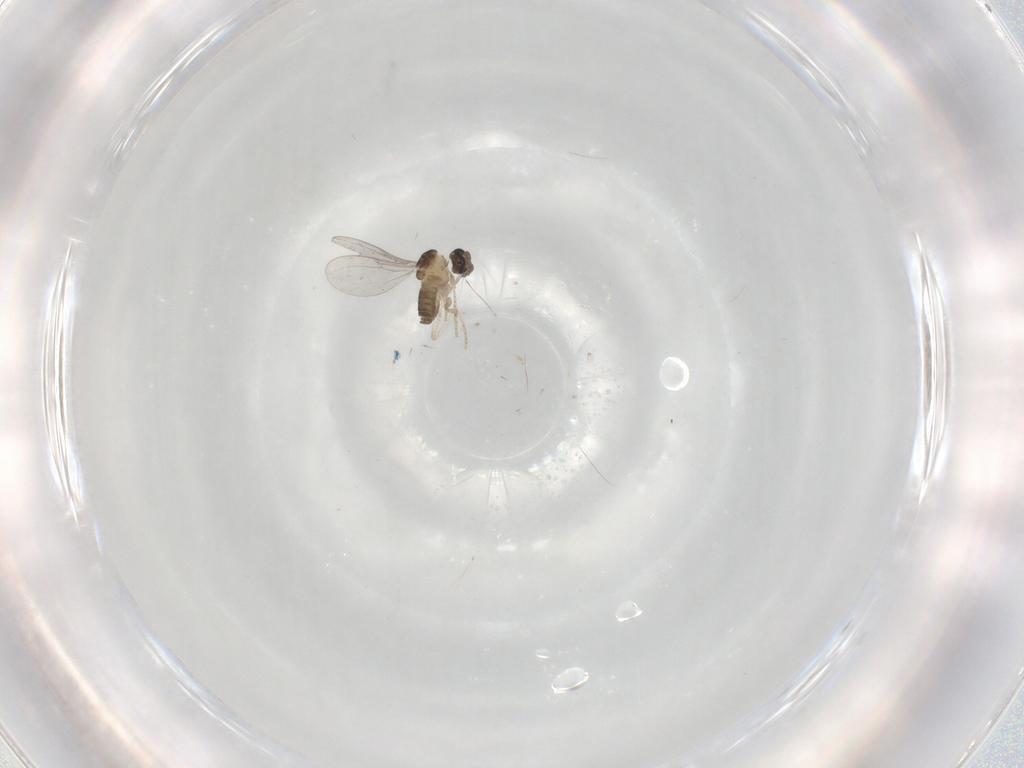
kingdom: Animalia
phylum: Arthropoda
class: Insecta
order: Diptera
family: Cecidomyiidae
